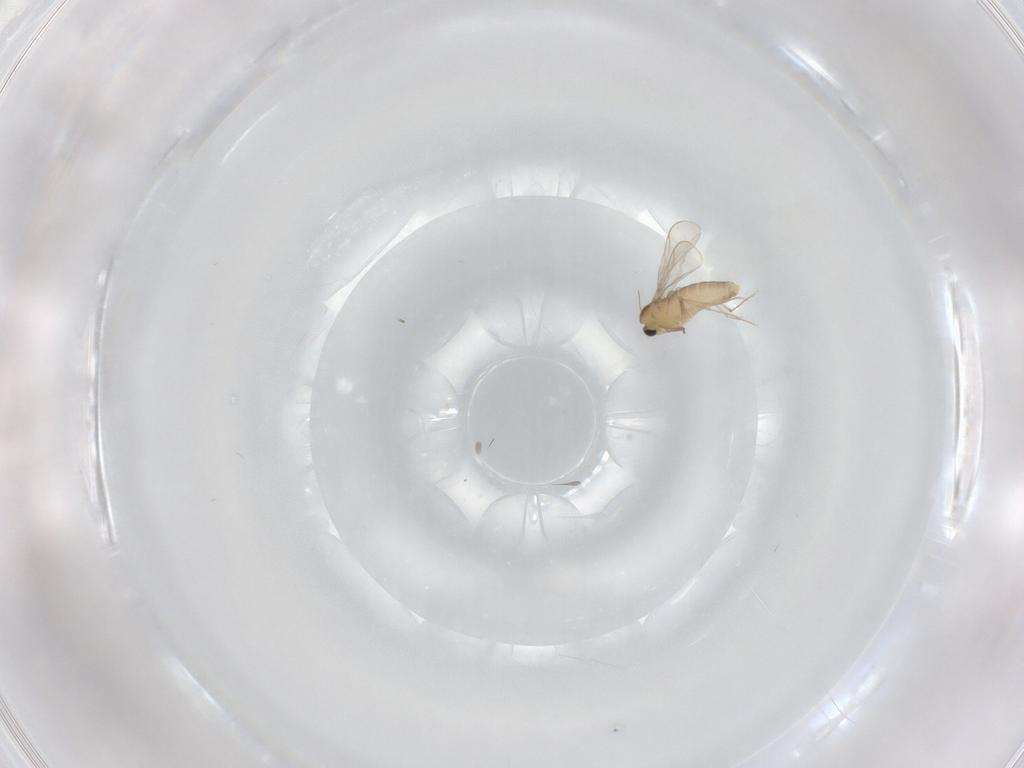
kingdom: Animalia
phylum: Arthropoda
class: Insecta
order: Diptera
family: Chironomidae
